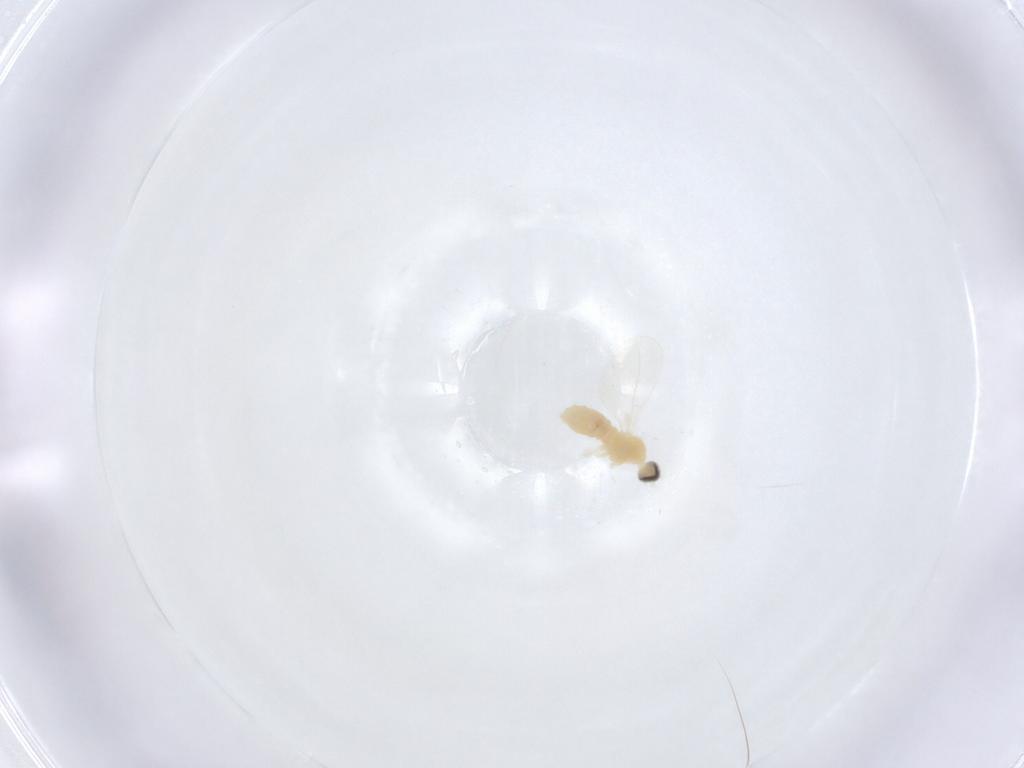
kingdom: Animalia
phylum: Arthropoda
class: Insecta
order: Diptera
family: Cecidomyiidae
